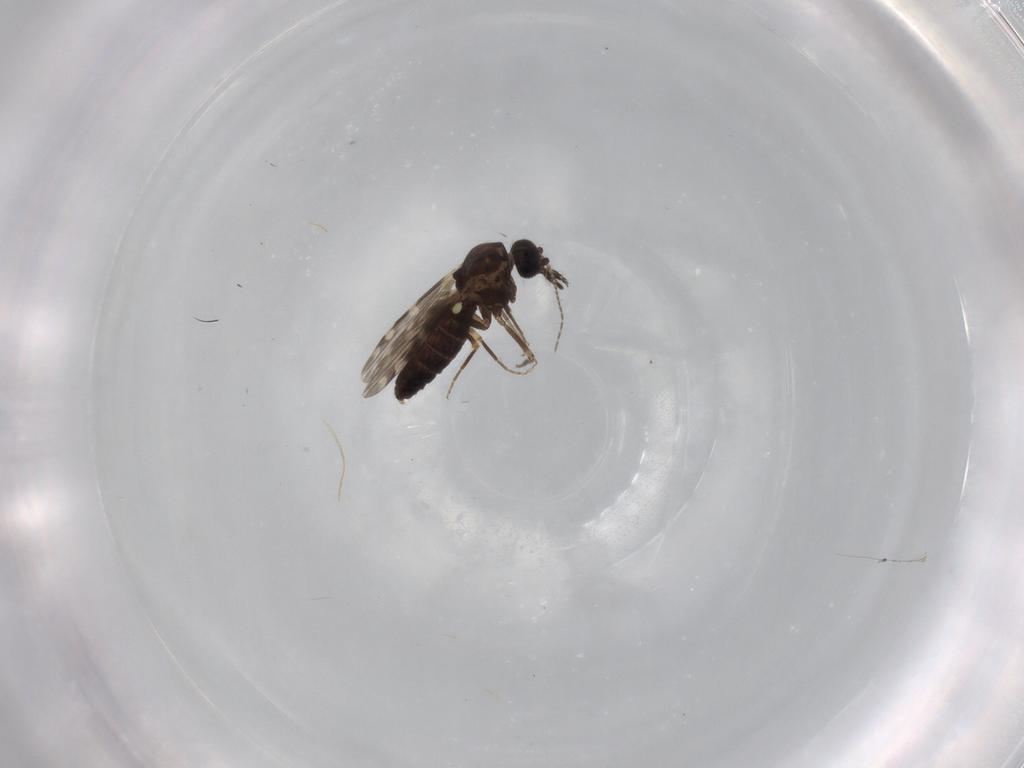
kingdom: Animalia
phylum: Arthropoda
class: Insecta
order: Diptera
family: Ceratopogonidae
